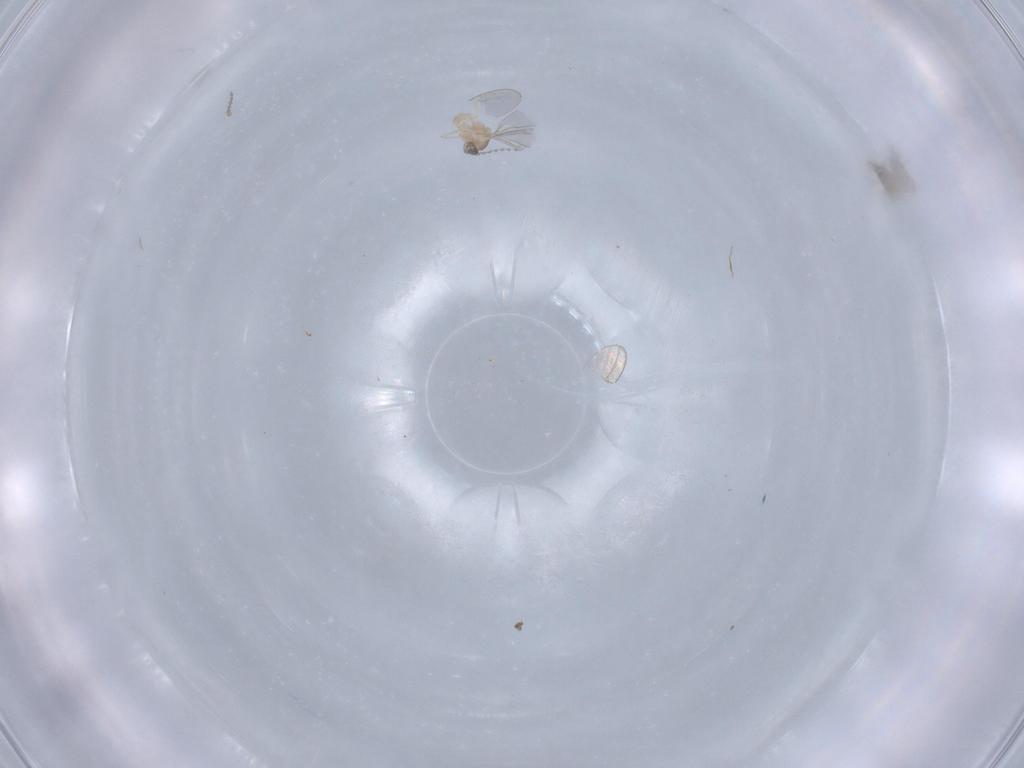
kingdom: Animalia
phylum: Arthropoda
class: Insecta
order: Diptera
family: Cecidomyiidae
